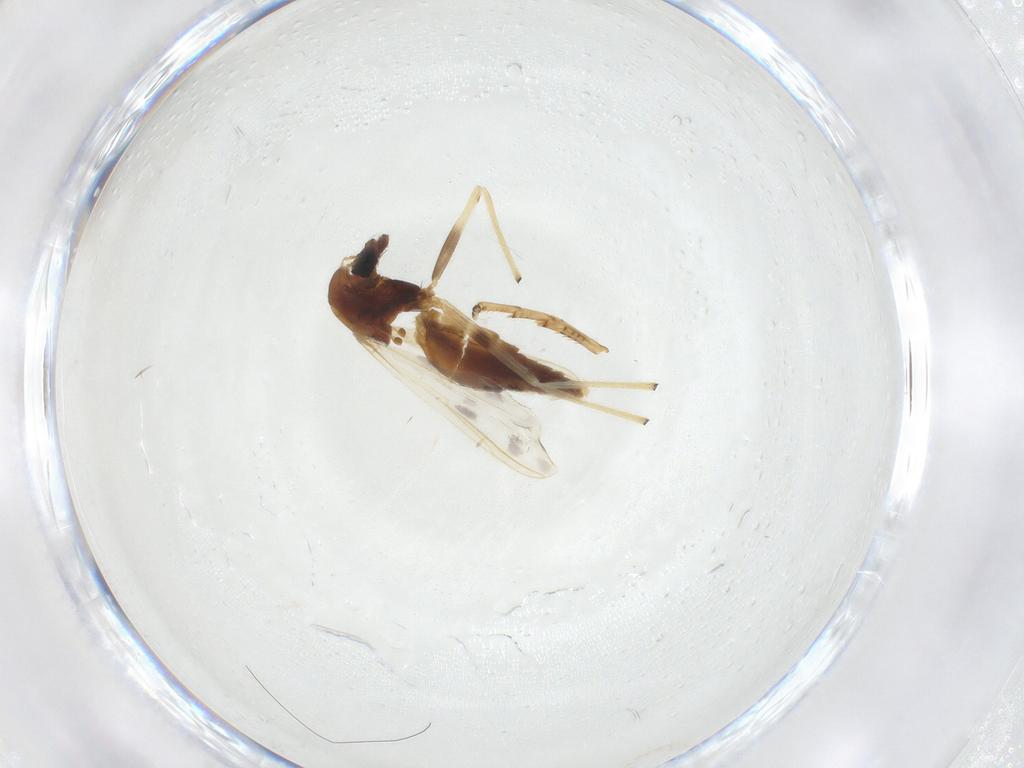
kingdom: Animalia
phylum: Arthropoda
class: Insecta
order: Diptera
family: Chironomidae
